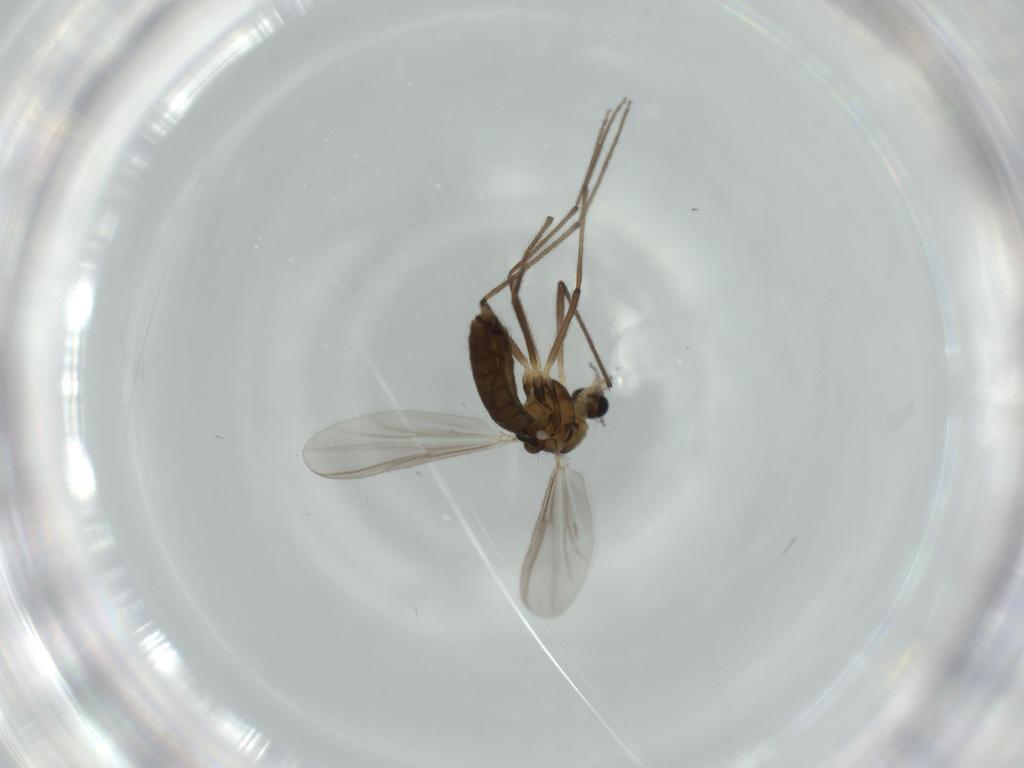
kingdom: Animalia
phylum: Arthropoda
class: Insecta
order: Diptera
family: Chironomidae
